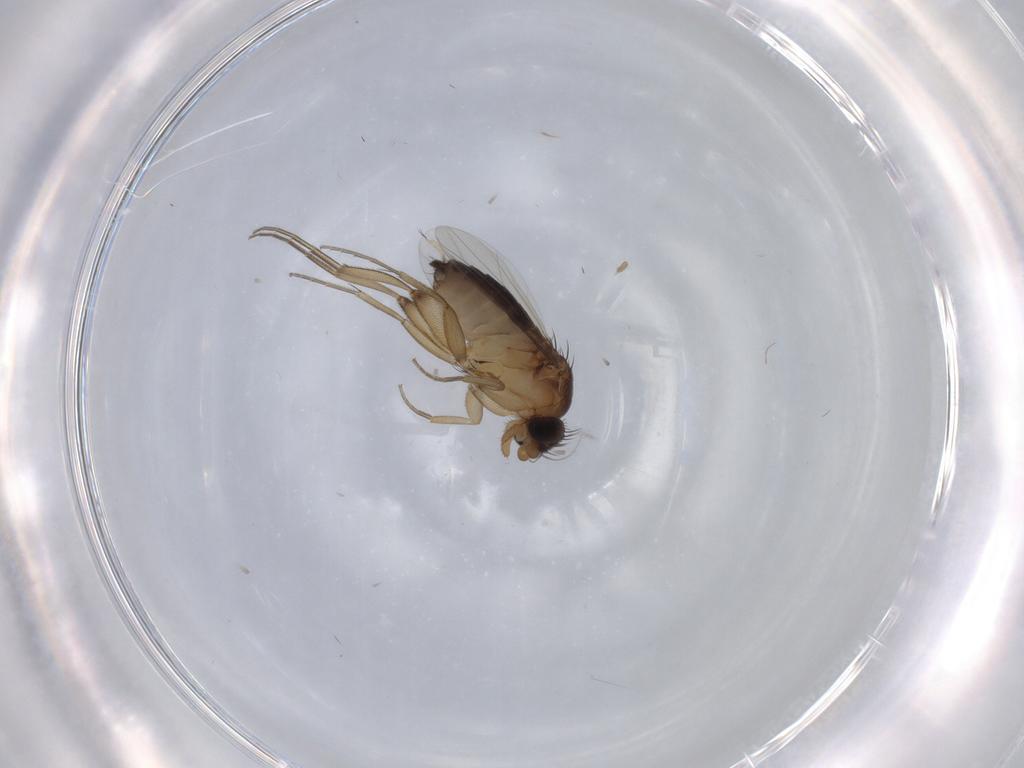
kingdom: Animalia
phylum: Arthropoda
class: Insecta
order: Diptera
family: Phoridae
